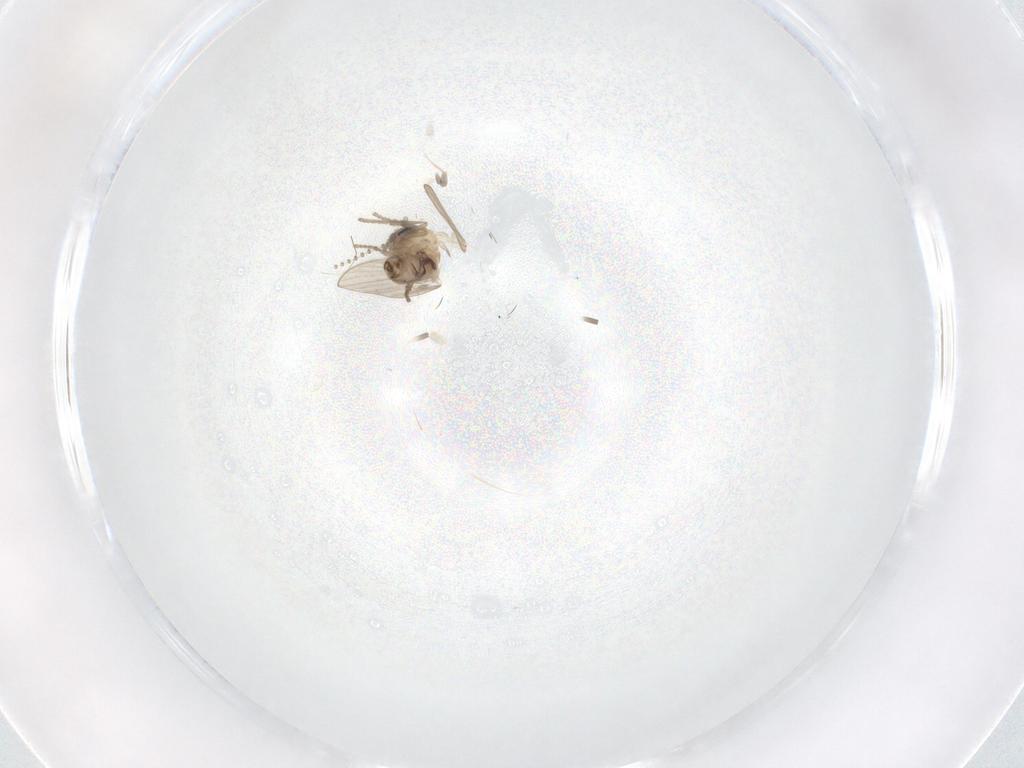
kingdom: Animalia
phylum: Arthropoda
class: Insecta
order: Diptera
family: Psychodidae
